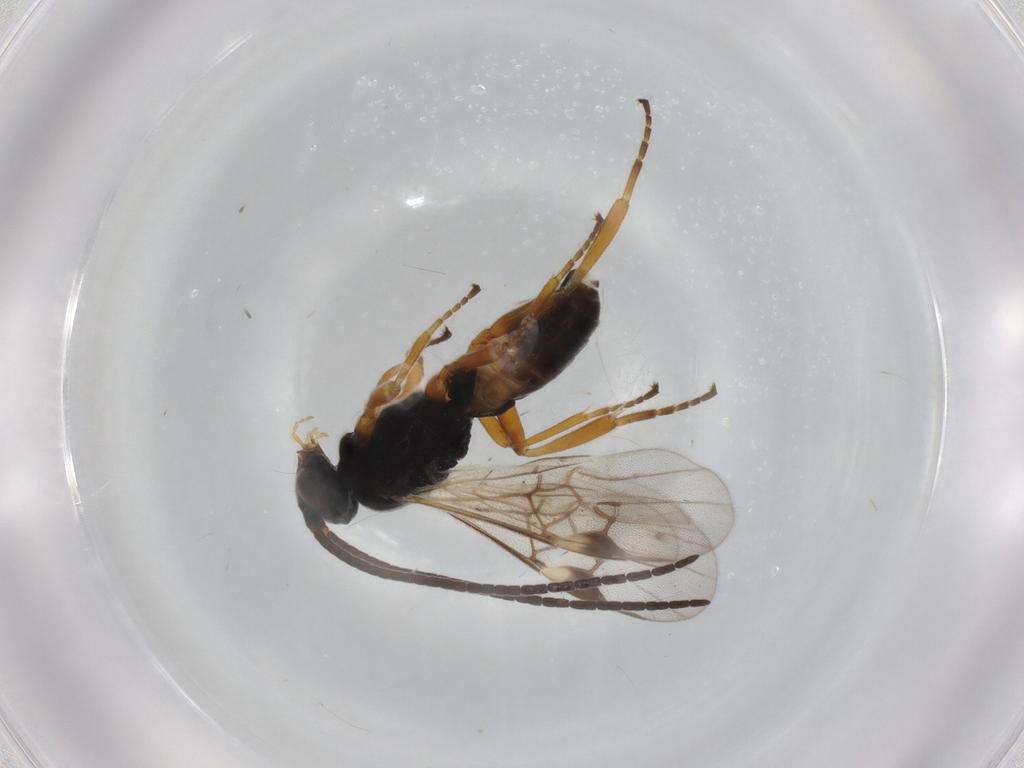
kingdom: Animalia
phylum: Arthropoda
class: Insecta
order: Hymenoptera
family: Braconidae
